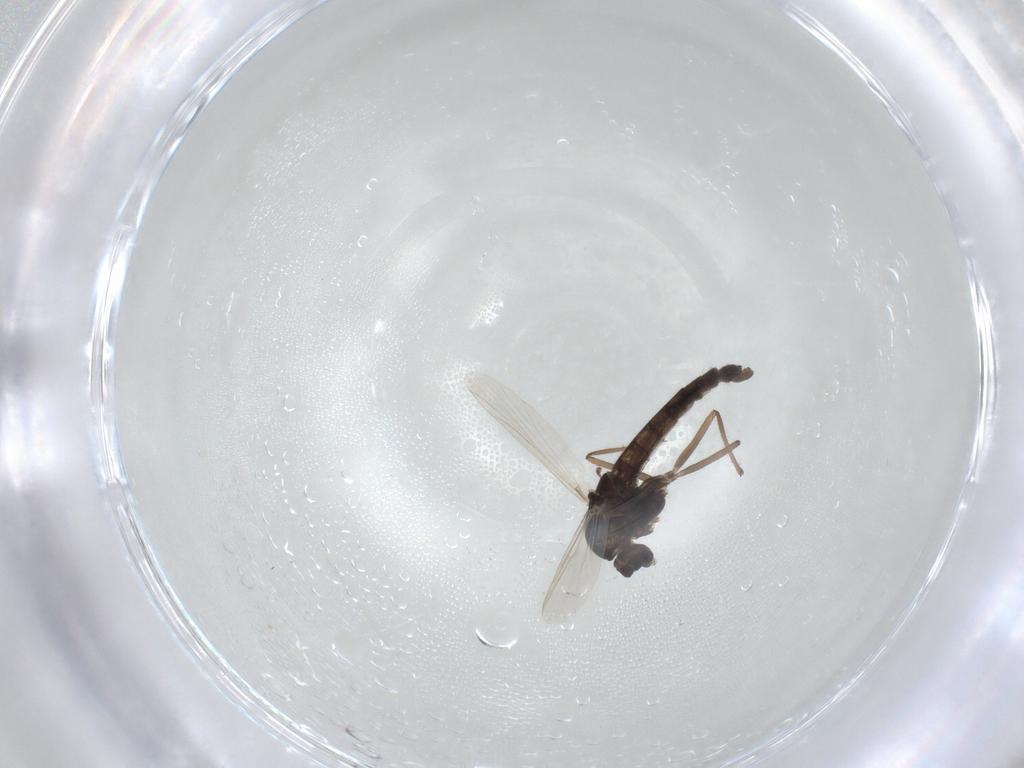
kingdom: Animalia
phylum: Arthropoda
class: Insecta
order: Diptera
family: Chironomidae
